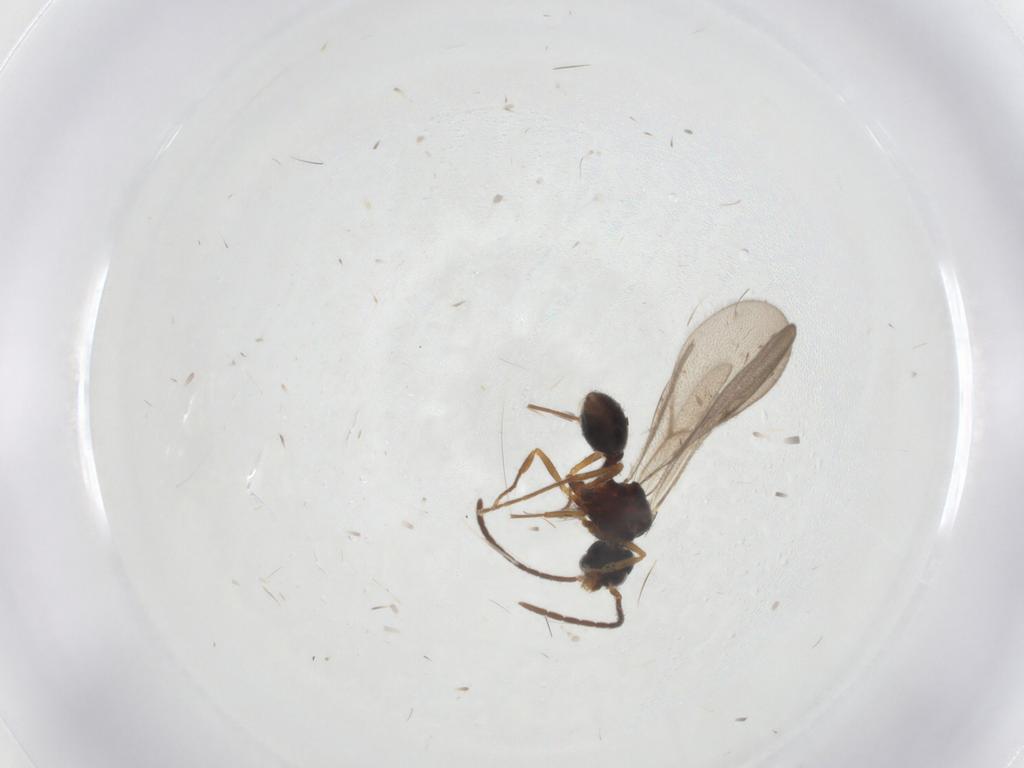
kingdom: Animalia
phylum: Arthropoda
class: Insecta
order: Hymenoptera
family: Formicidae
